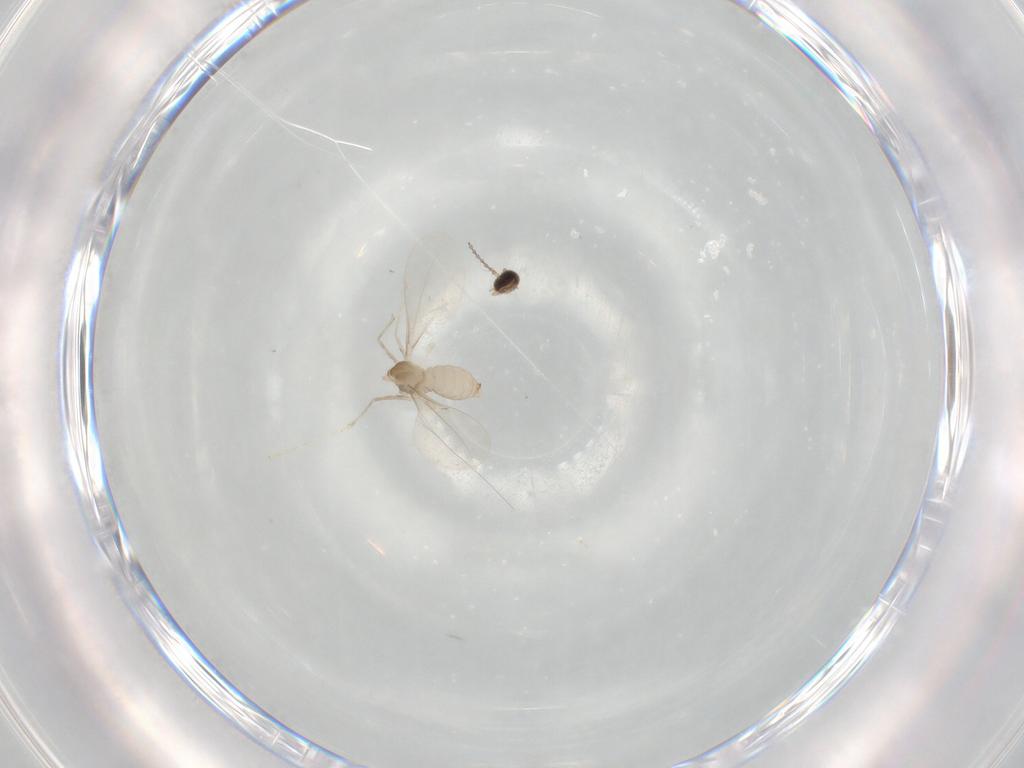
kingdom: Animalia
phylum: Arthropoda
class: Insecta
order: Diptera
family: Cecidomyiidae
